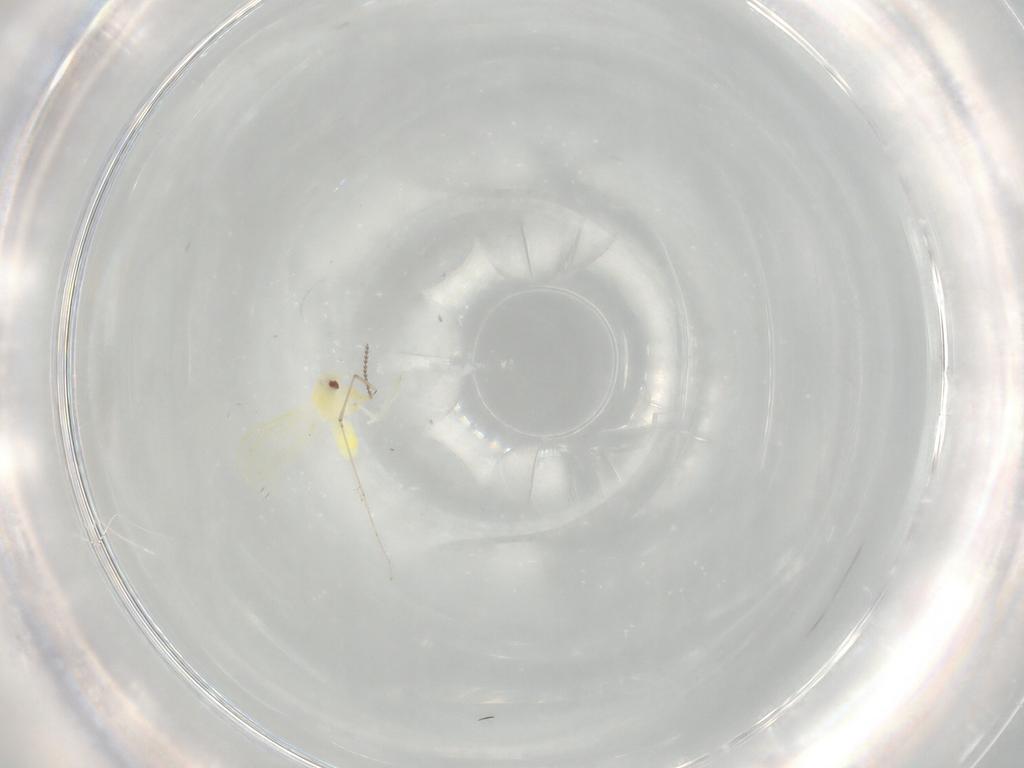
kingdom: Animalia
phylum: Arthropoda
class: Insecta
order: Hemiptera
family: Aleyrodidae
